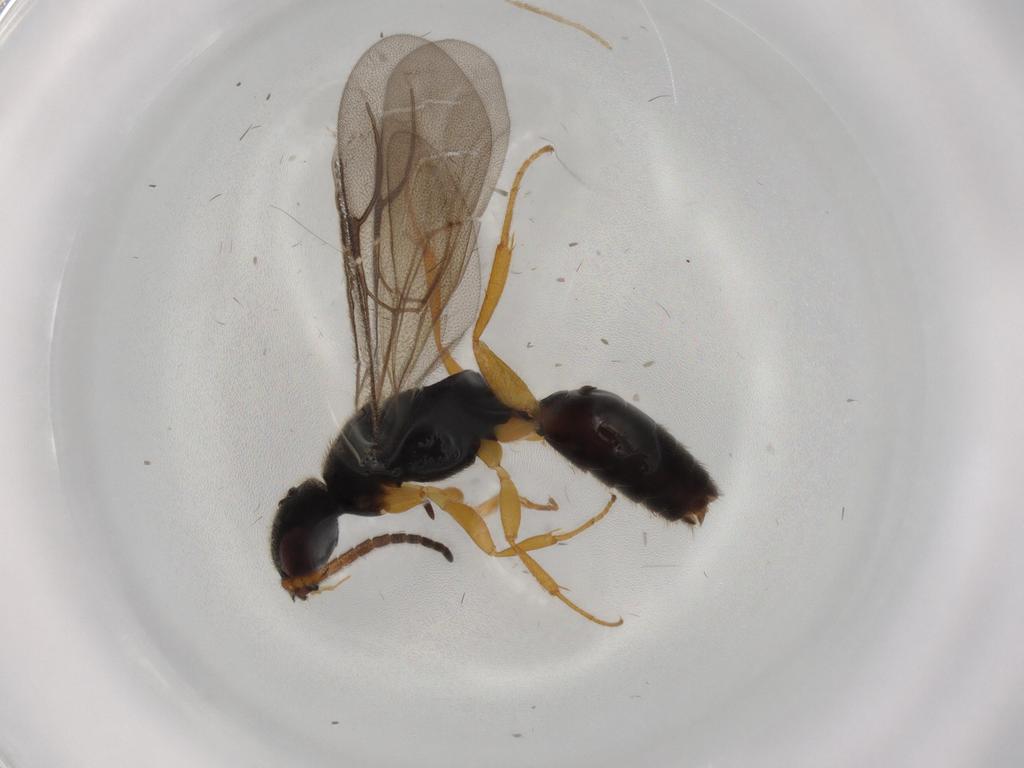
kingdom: Animalia
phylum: Arthropoda
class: Insecta
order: Hymenoptera
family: Bethylidae
